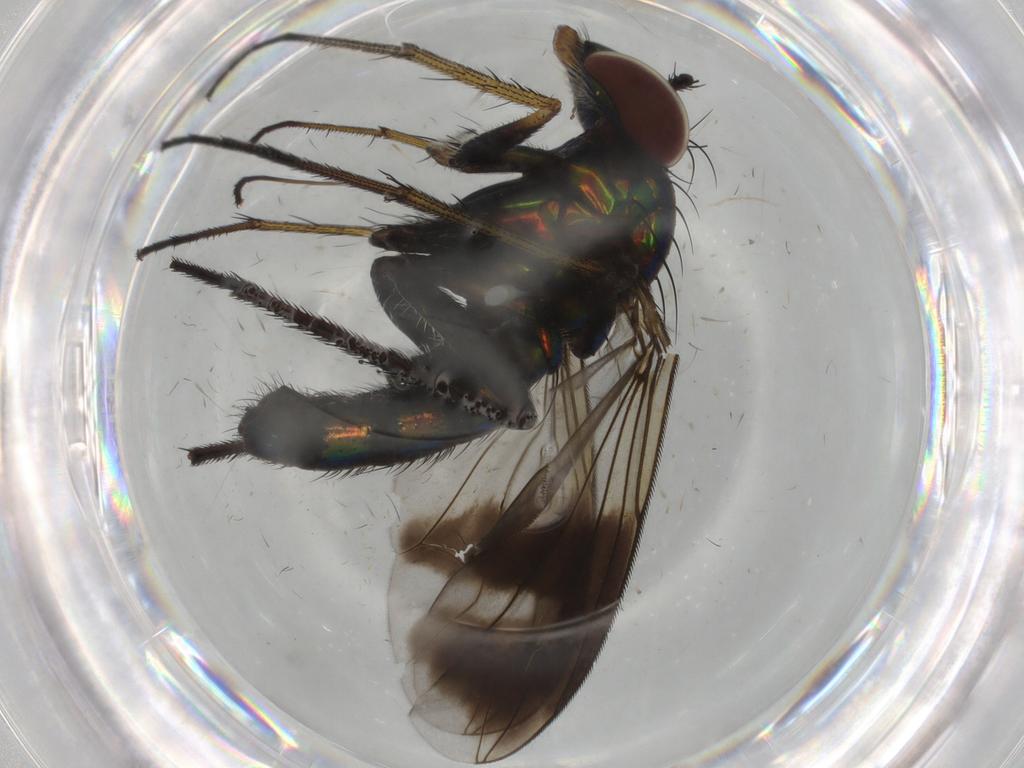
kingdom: Animalia
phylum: Arthropoda
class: Insecta
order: Diptera
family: Dolichopodidae
